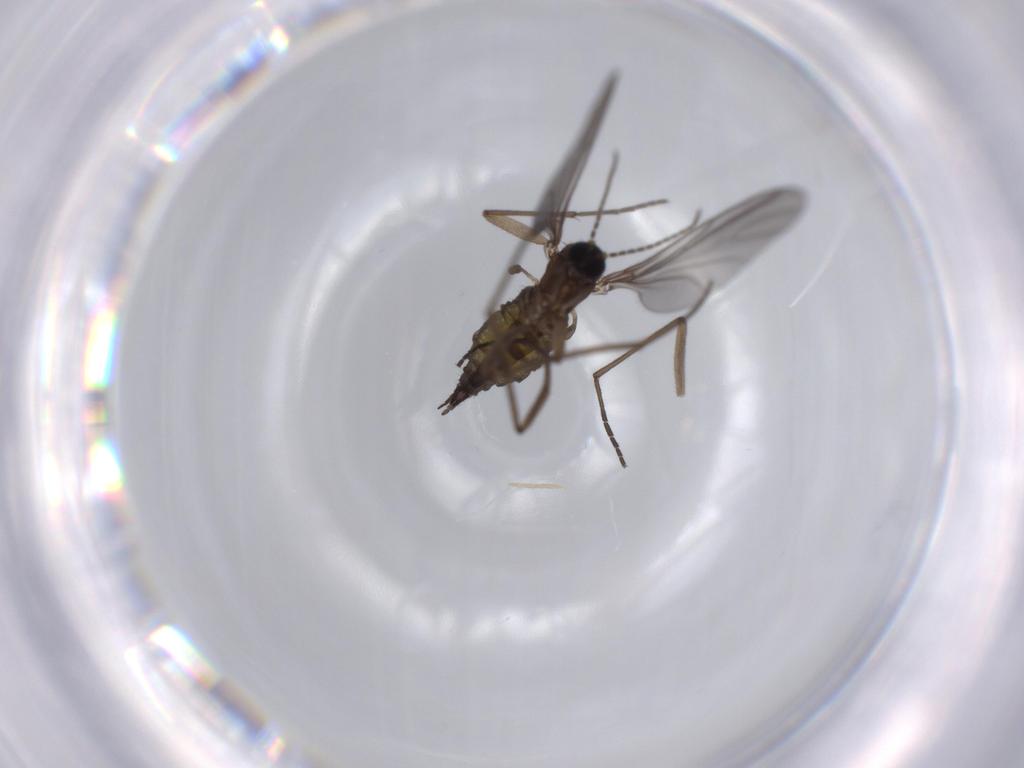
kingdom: Animalia
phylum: Arthropoda
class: Insecta
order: Diptera
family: Sciaridae
